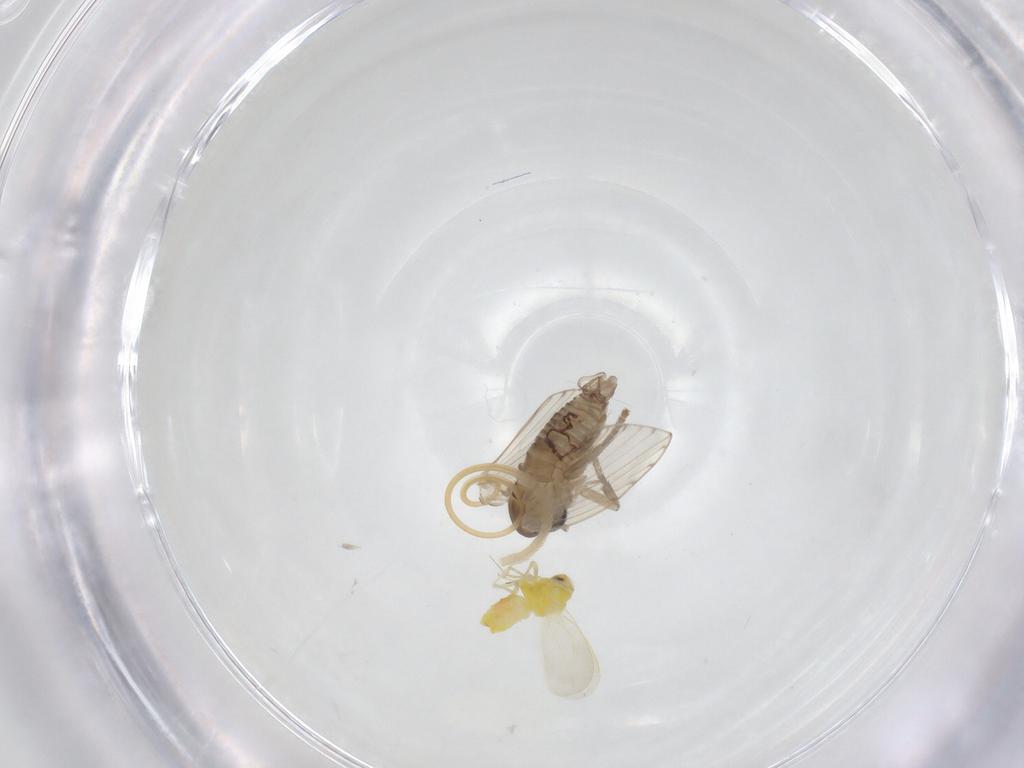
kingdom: Animalia
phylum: Arthropoda
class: Insecta
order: Diptera
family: Psychodidae
